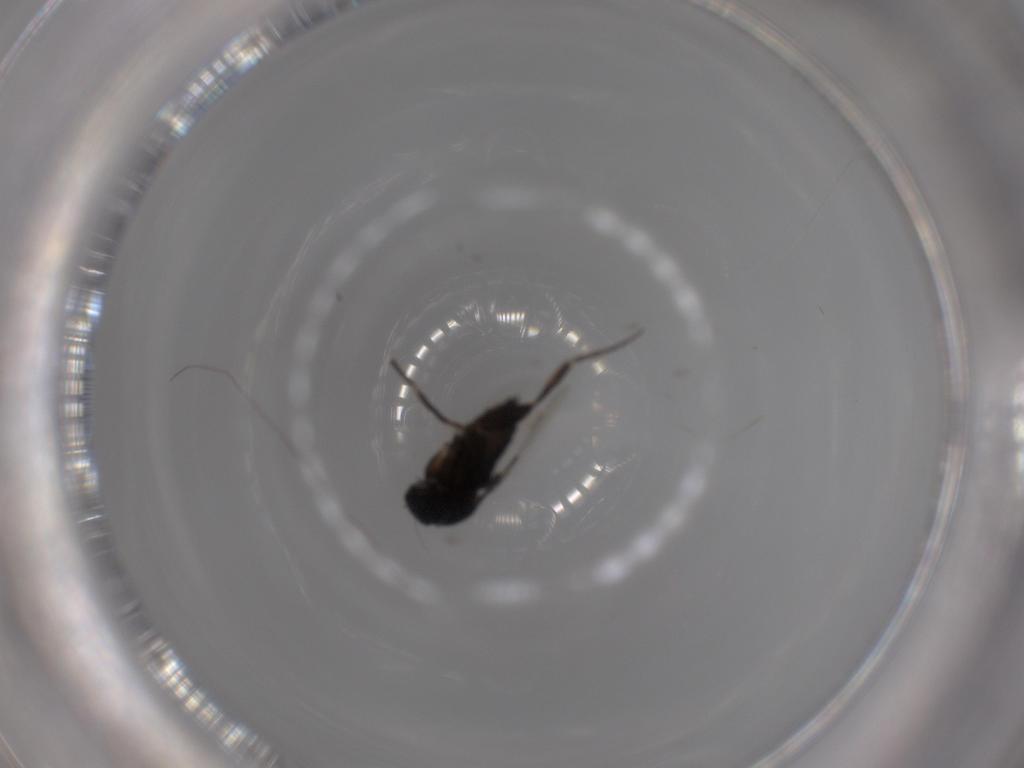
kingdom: Animalia
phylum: Arthropoda
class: Insecta
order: Diptera
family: Phoridae
